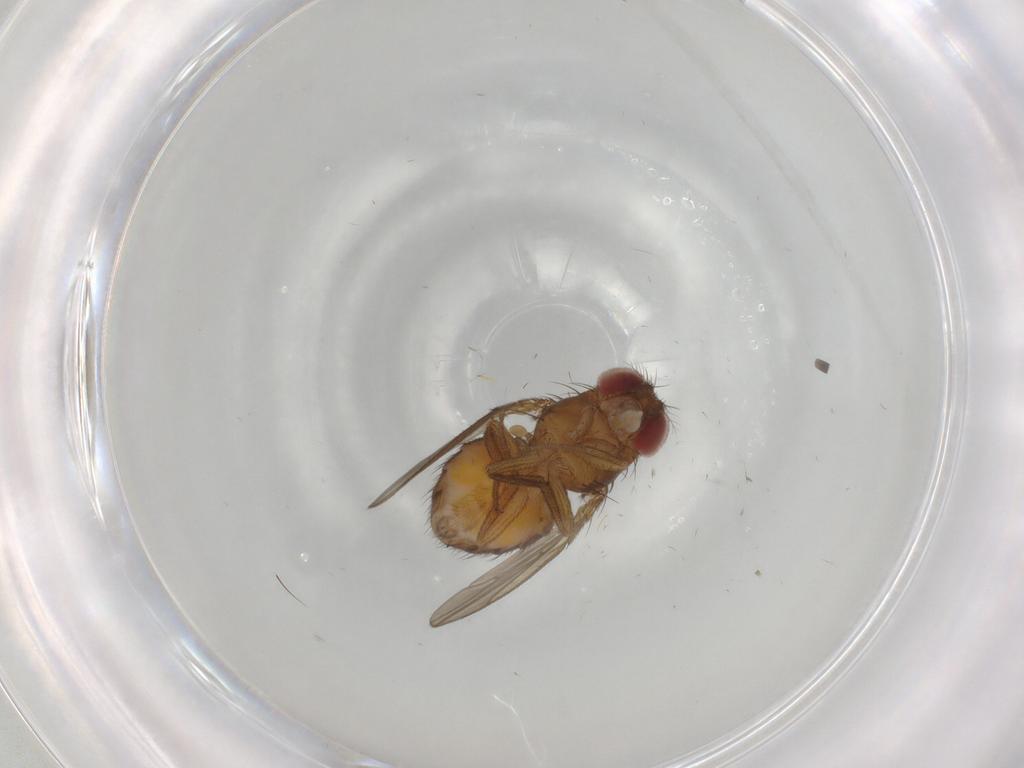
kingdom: Animalia
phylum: Arthropoda
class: Insecta
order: Diptera
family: Drosophilidae
